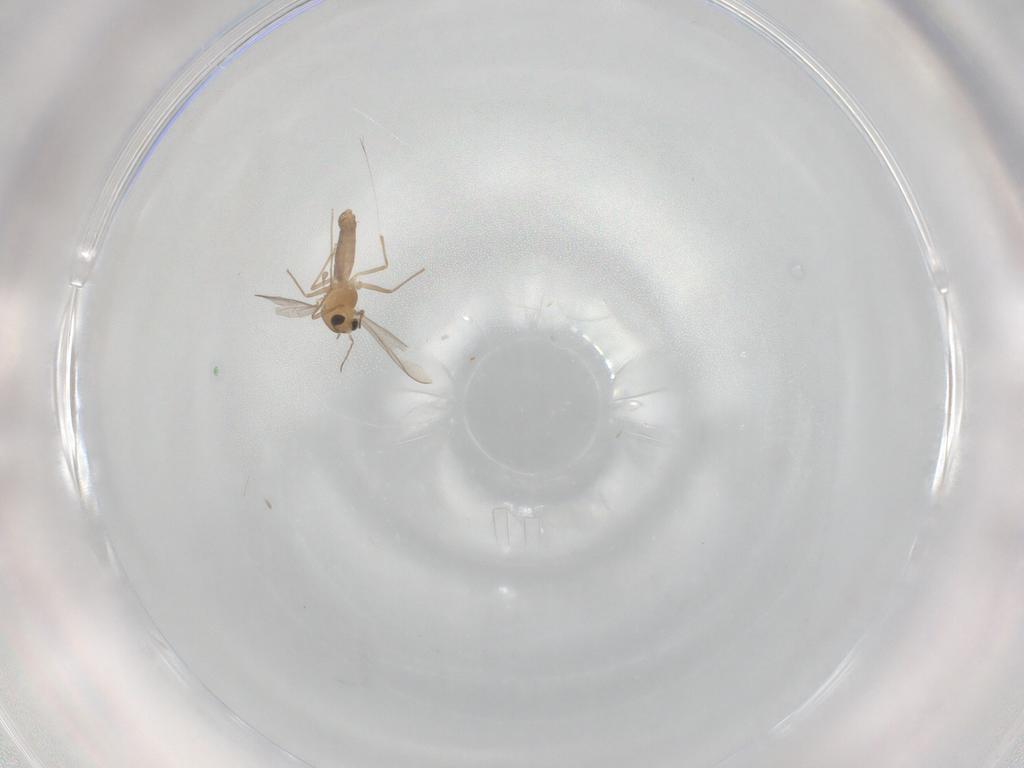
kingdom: Animalia
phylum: Arthropoda
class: Insecta
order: Diptera
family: Chironomidae
